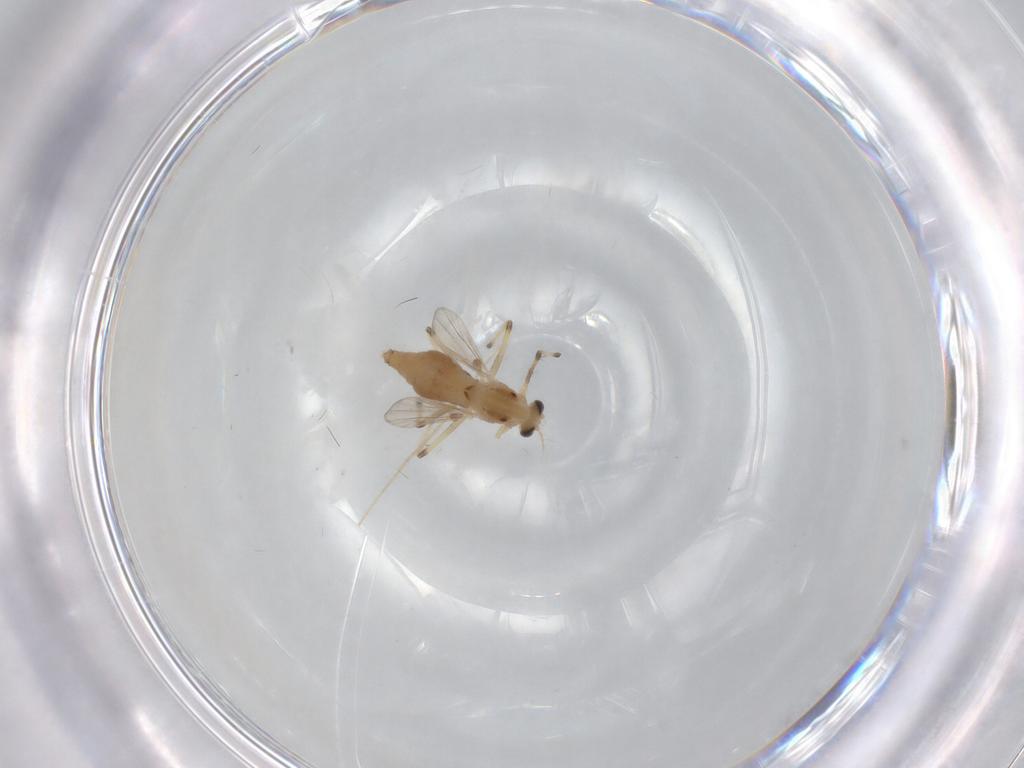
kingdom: Animalia
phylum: Arthropoda
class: Insecta
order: Diptera
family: Chironomidae
